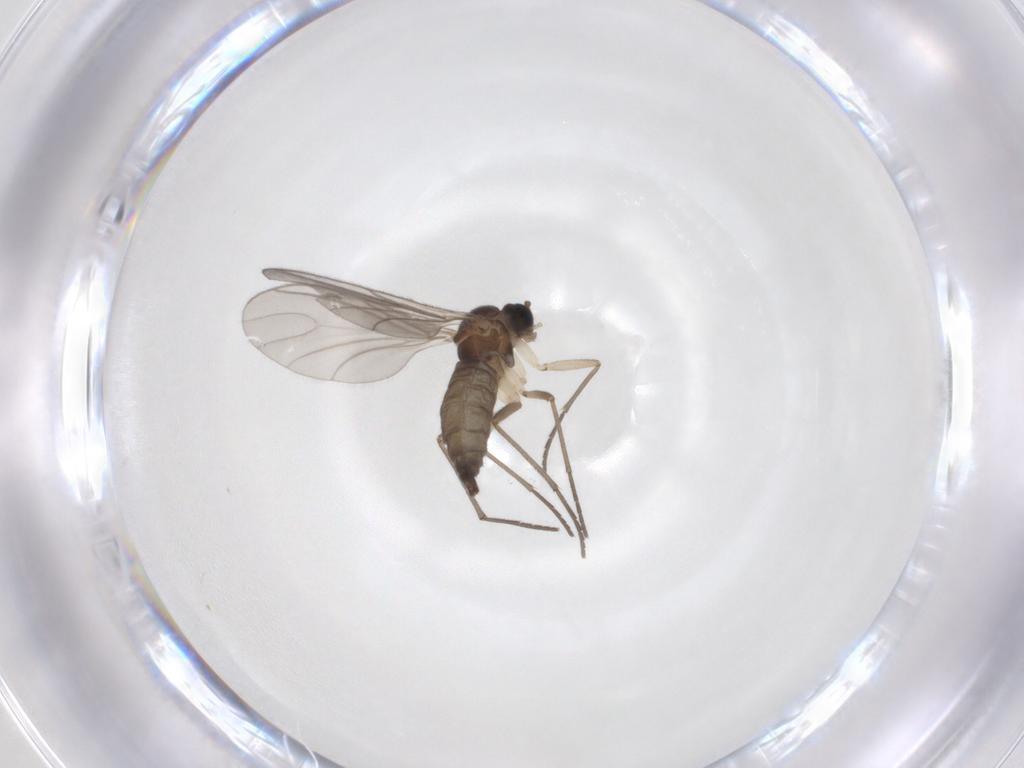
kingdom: Animalia
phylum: Arthropoda
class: Insecta
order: Diptera
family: Sciaridae
